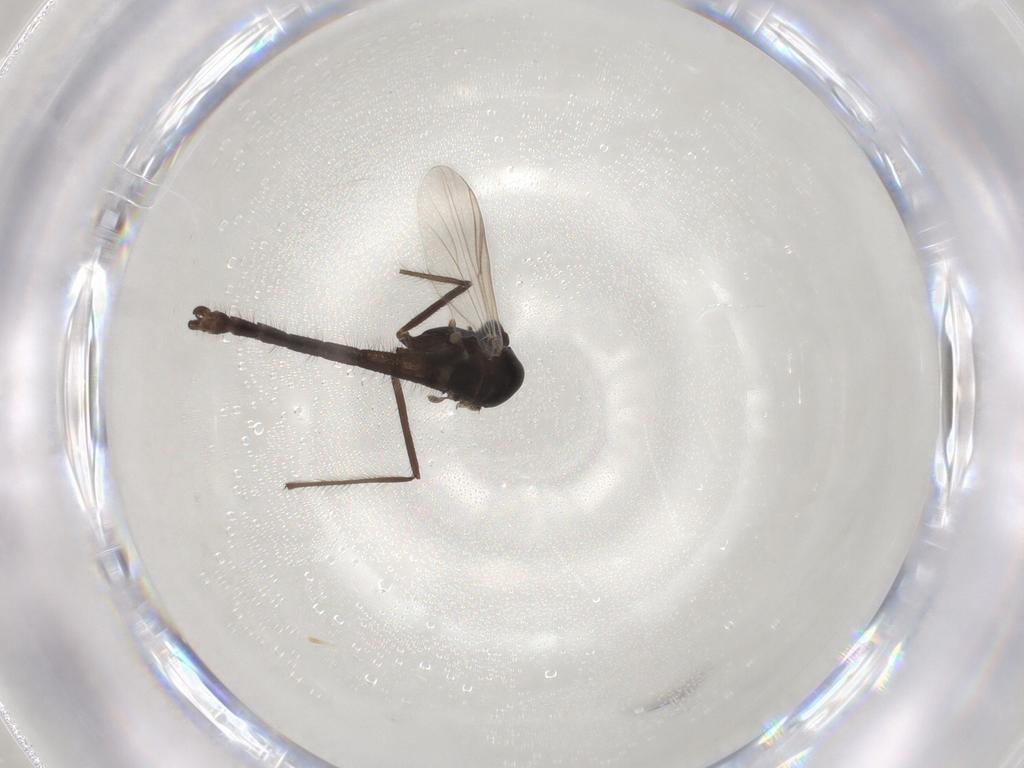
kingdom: Animalia
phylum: Arthropoda
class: Insecta
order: Diptera
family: Chironomidae
